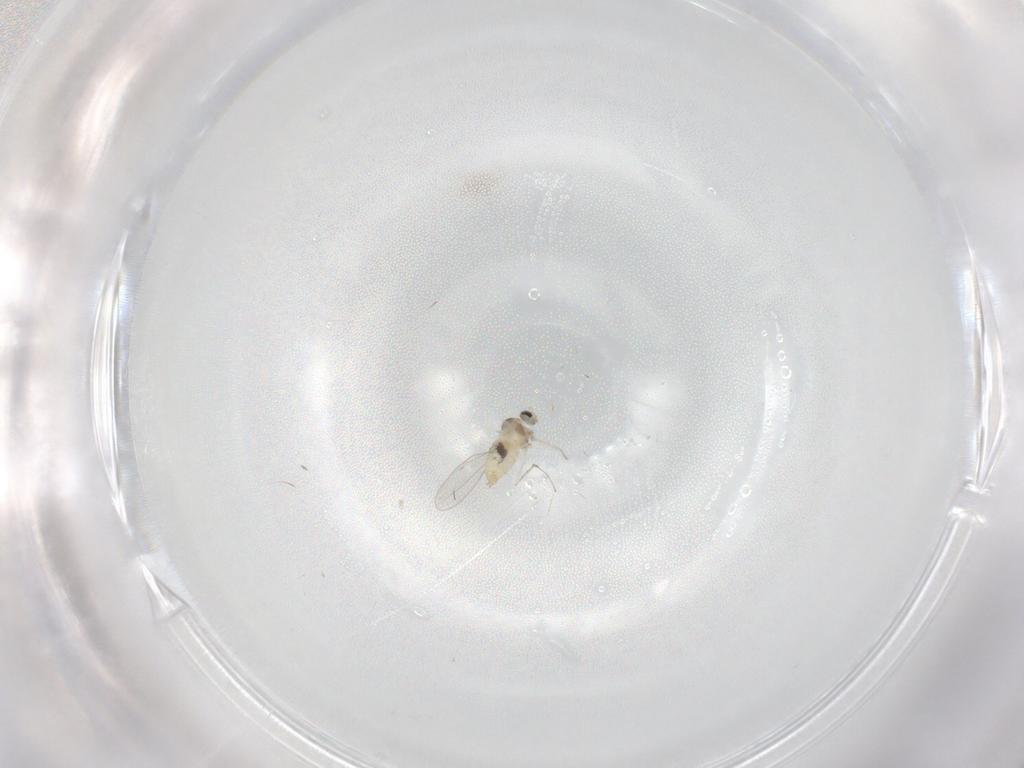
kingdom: Animalia
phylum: Arthropoda
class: Insecta
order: Diptera
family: Cecidomyiidae
